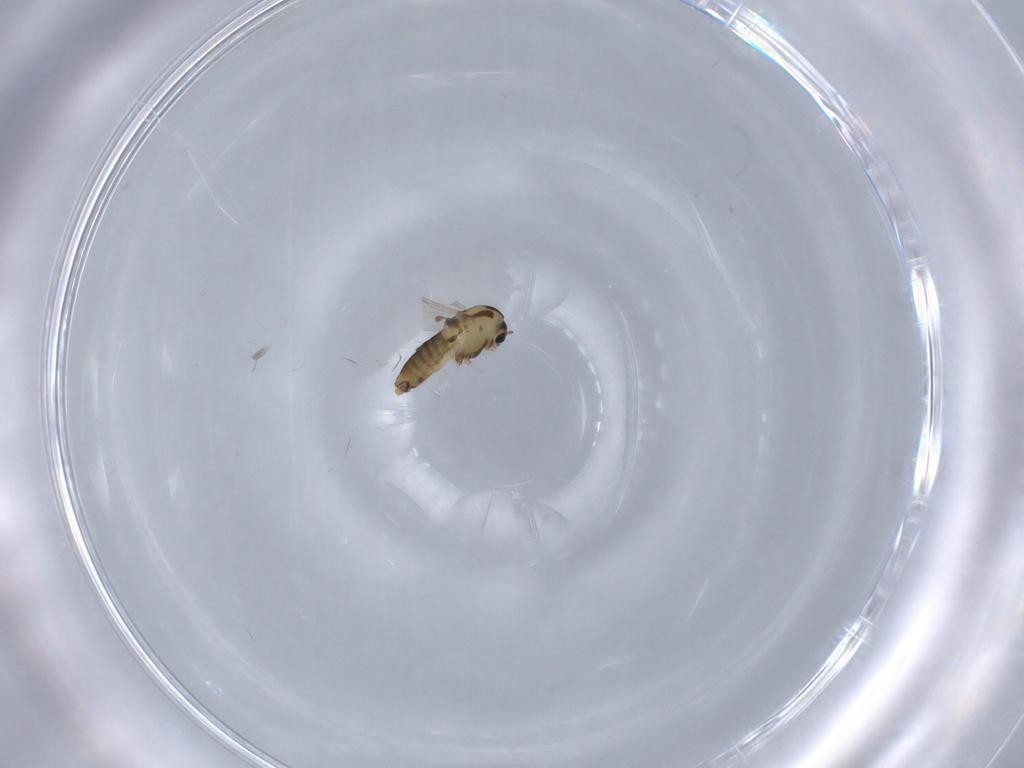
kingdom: Animalia
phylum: Arthropoda
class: Insecta
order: Diptera
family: Chironomidae
